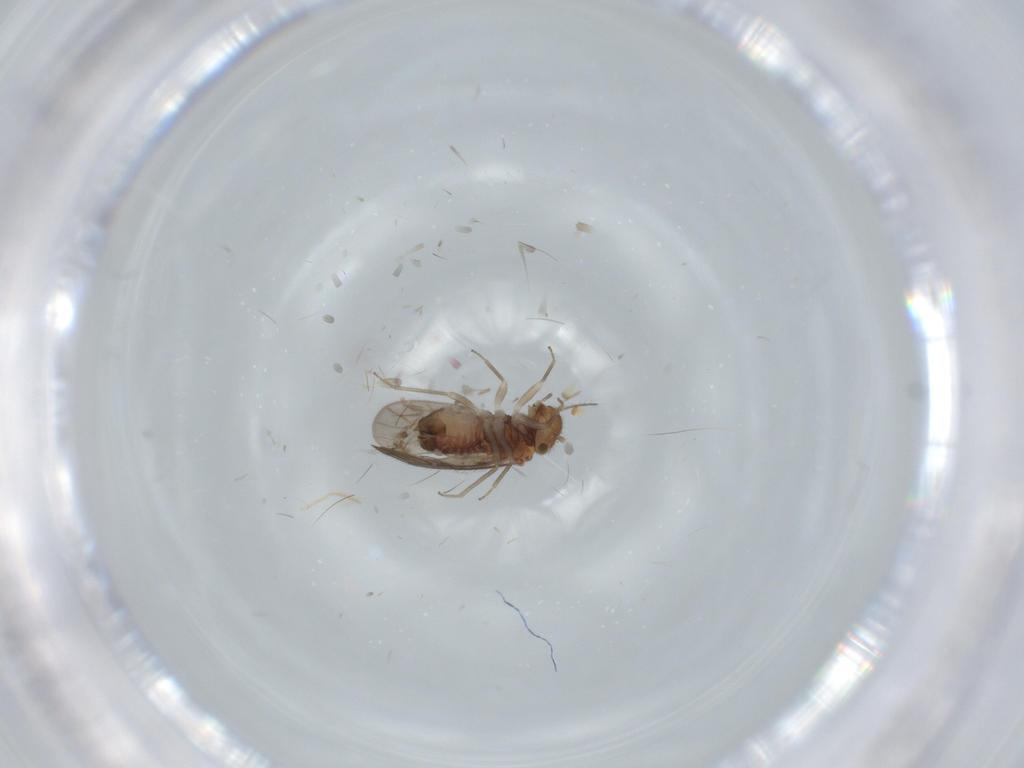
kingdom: Animalia
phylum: Arthropoda
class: Insecta
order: Psocodea
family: Ectopsocidae
